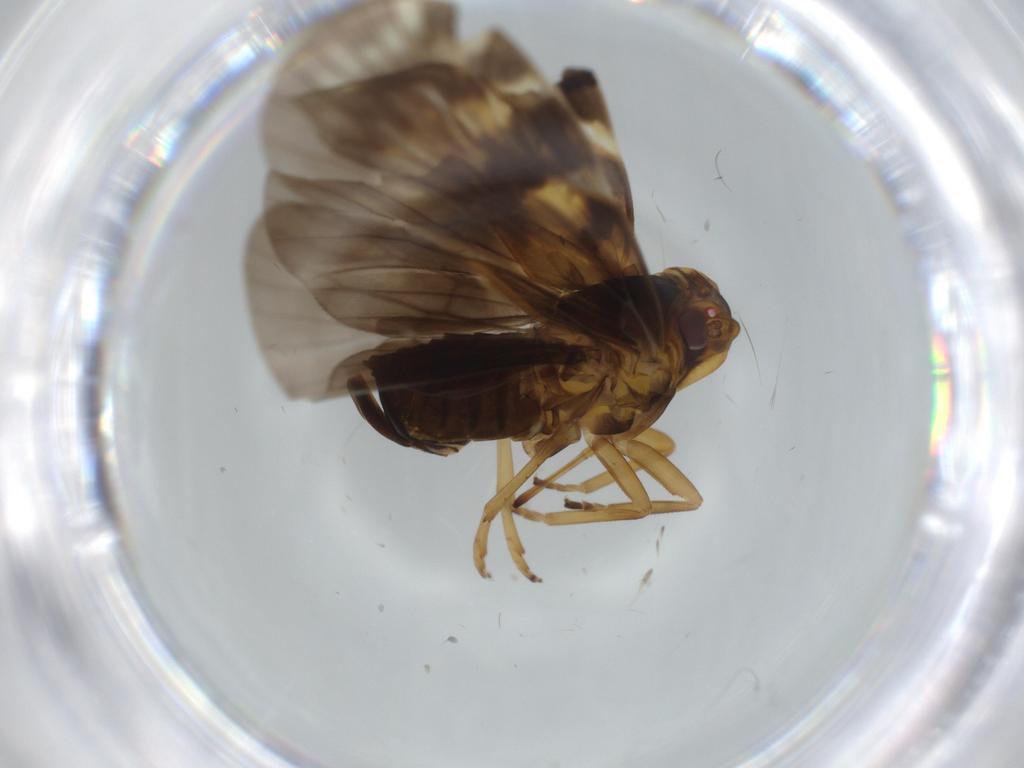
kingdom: Animalia
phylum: Arthropoda
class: Insecta
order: Hemiptera
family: Cixiidae
